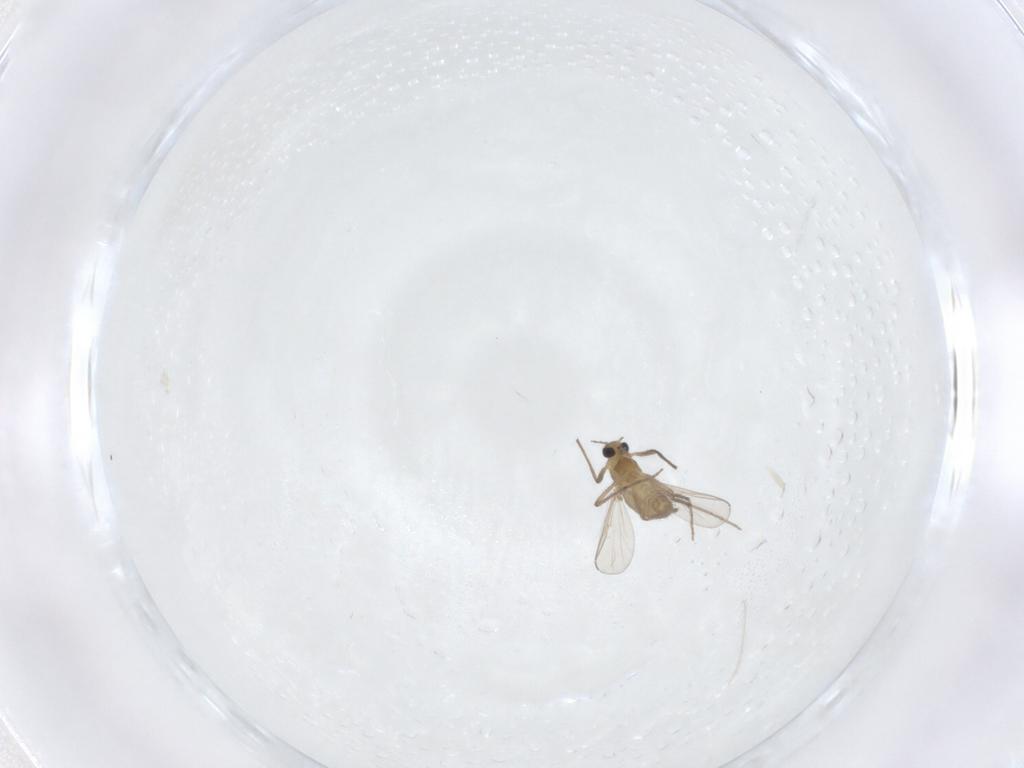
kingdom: Animalia
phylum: Arthropoda
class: Insecta
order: Diptera
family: Chironomidae
